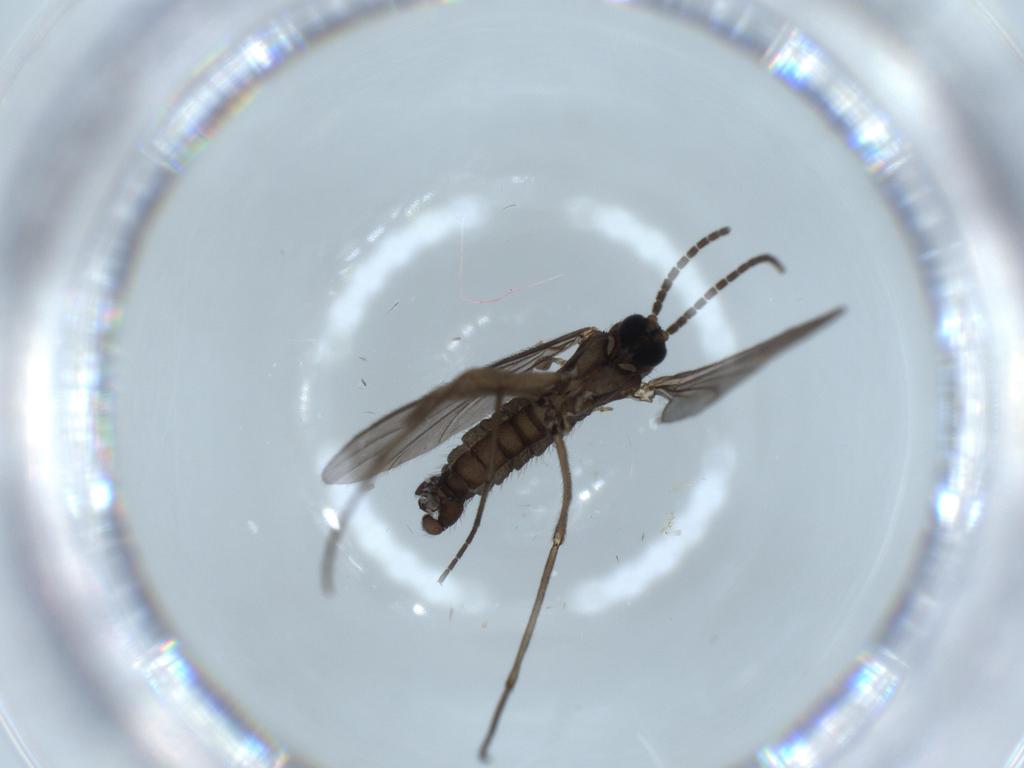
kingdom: Animalia
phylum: Arthropoda
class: Insecta
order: Diptera
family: Sciaridae
